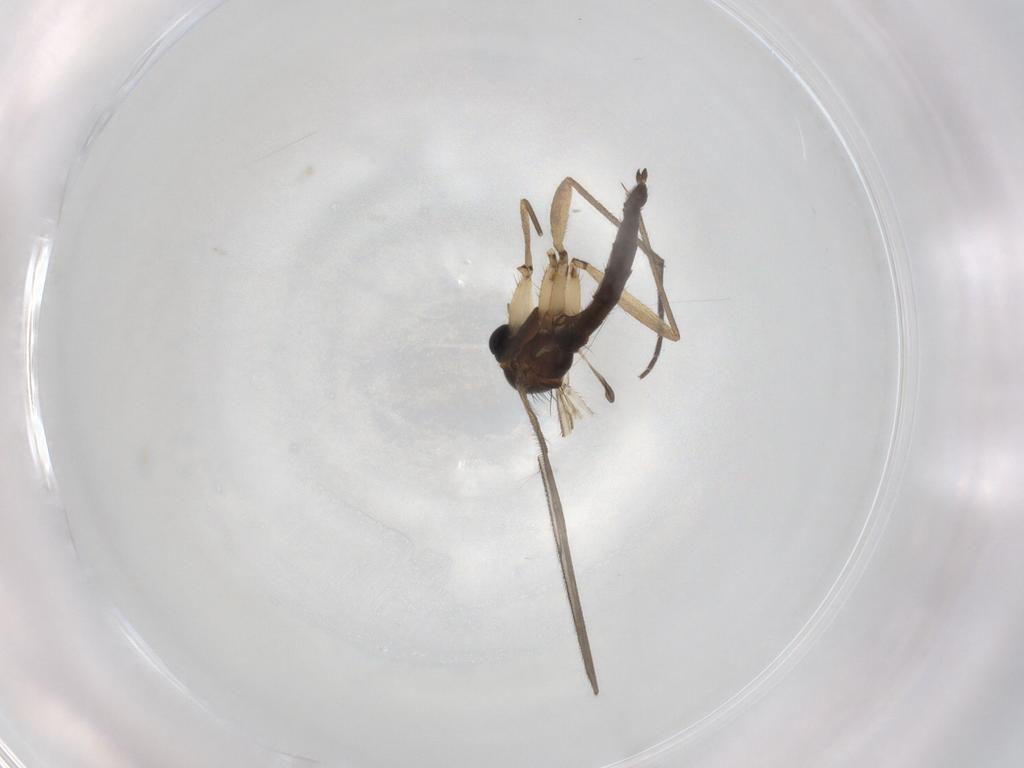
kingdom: Animalia
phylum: Arthropoda
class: Insecta
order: Diptera
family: Sciaridae
